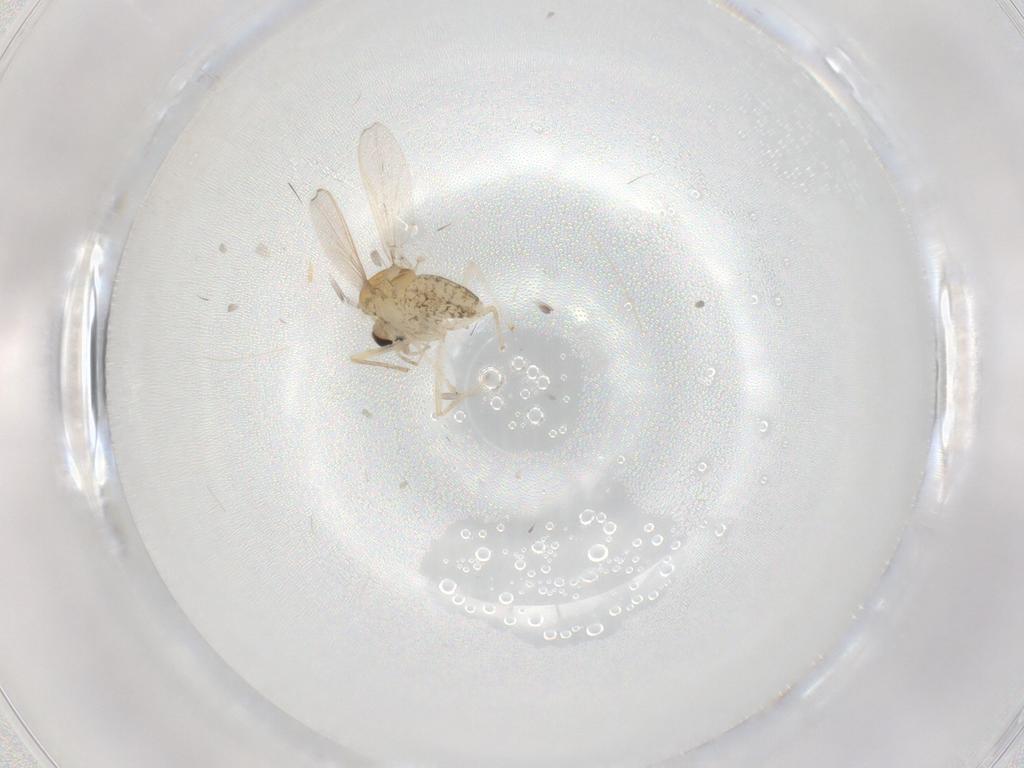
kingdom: Animalia
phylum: Arthropoda
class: Insecta
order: Diptera
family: Chironomidae
